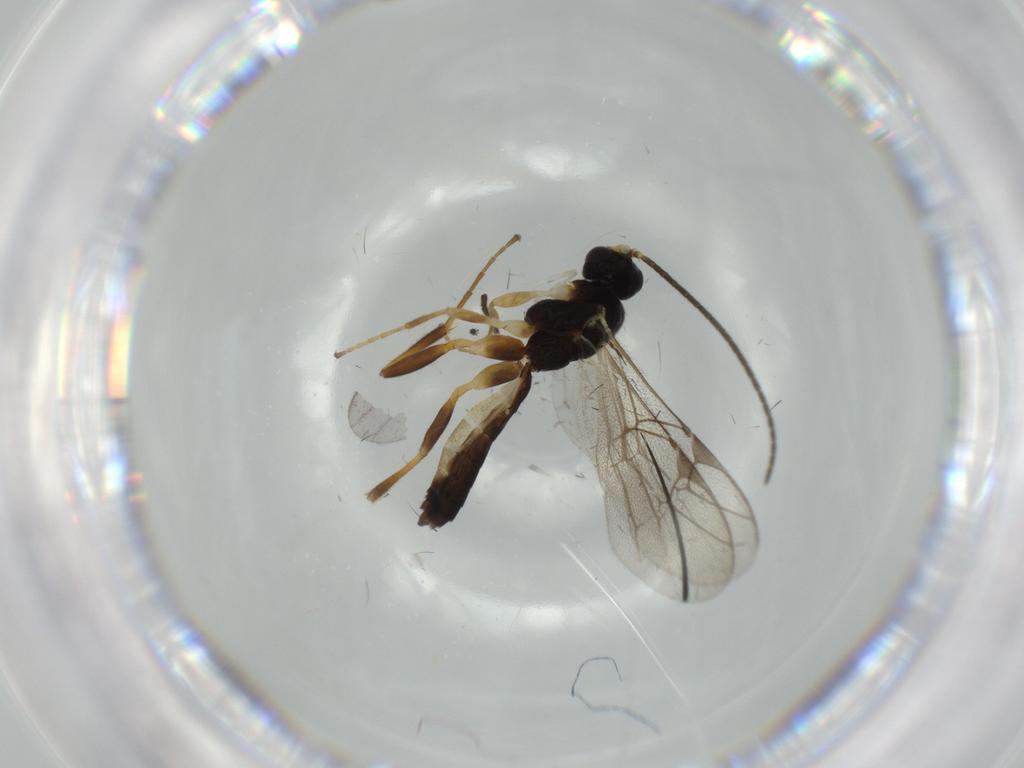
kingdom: Animalia
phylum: Arthropoda
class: Insecta
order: Hymenoptera
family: Ichneumonidae
